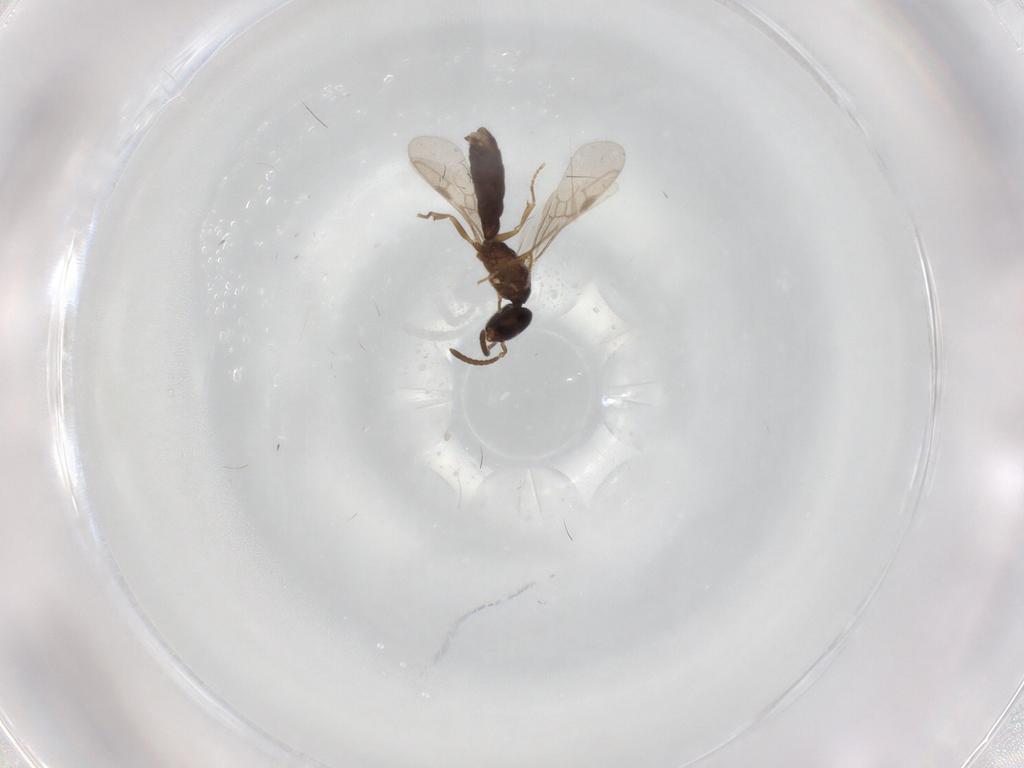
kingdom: Animalia
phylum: Arthropoda
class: Insecta
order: Hymenoptera
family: Formicidae
